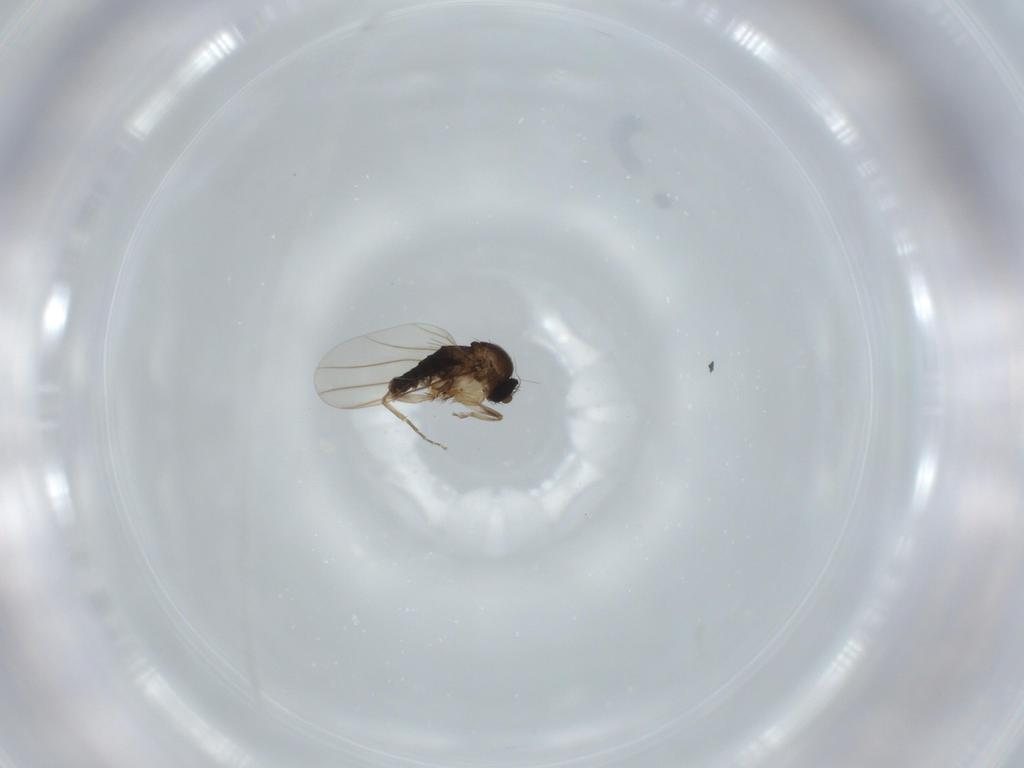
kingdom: Animalia
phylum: Arthropoda
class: Insecta
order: Diptera
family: Phoridae
